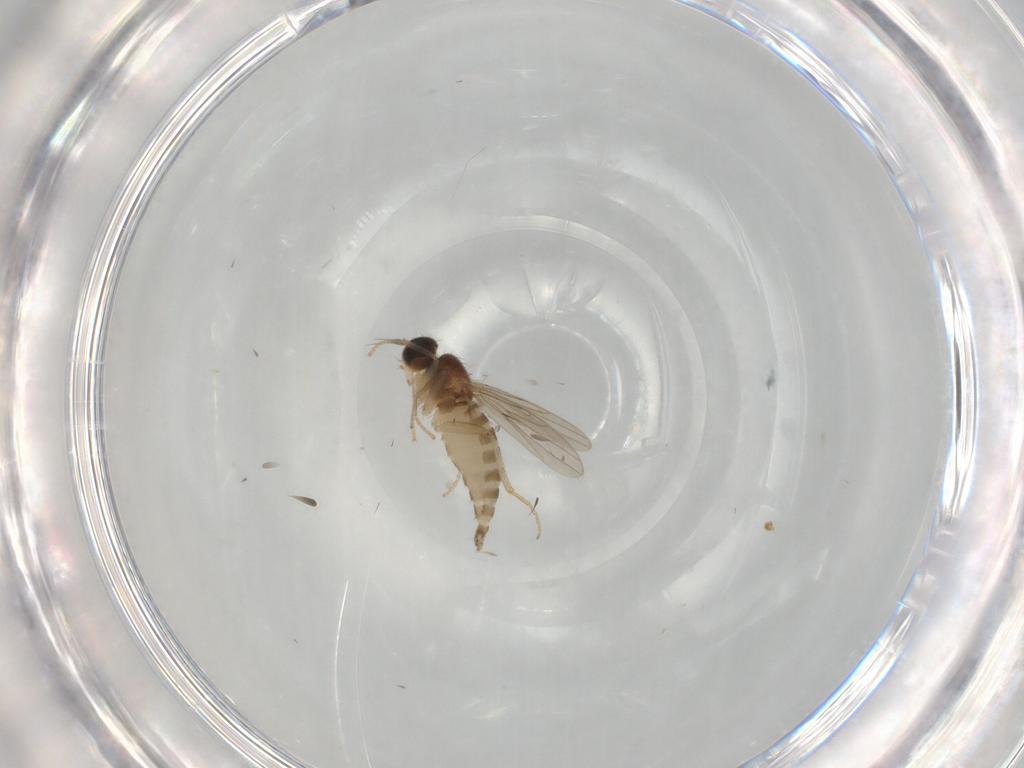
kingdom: Animalia
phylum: Arthropoda
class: Insecta
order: Diptera
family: Hybotidae
